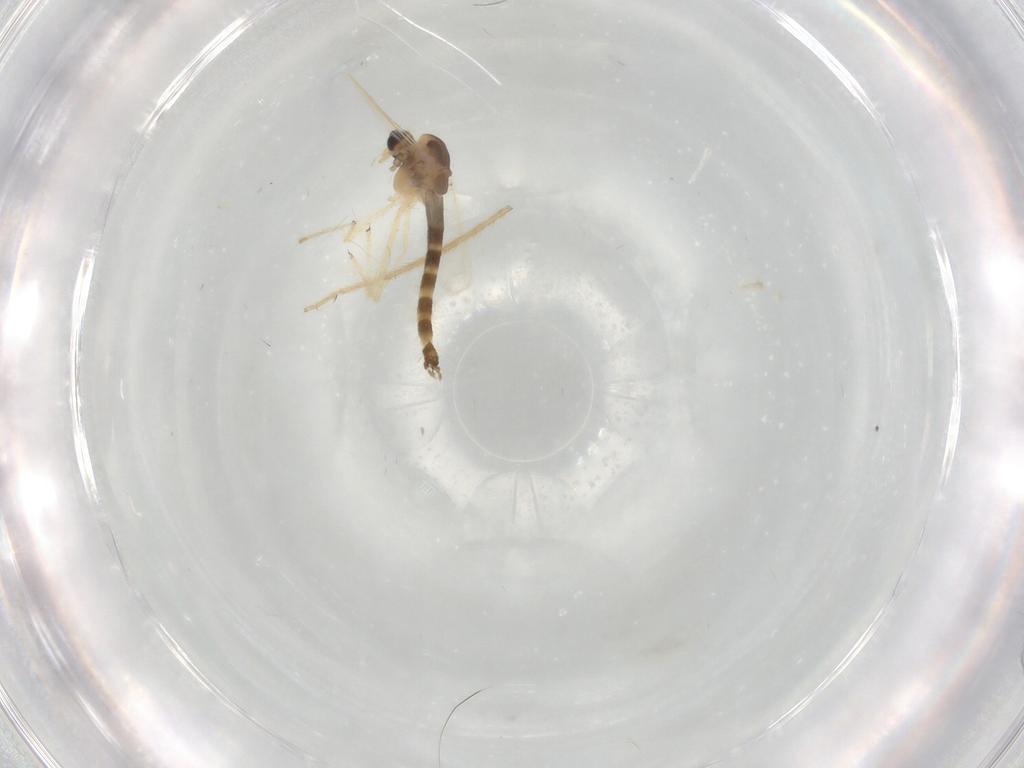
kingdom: Animalia
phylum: Arthropoda
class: Insecta
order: Diptera
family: Chironomidae
